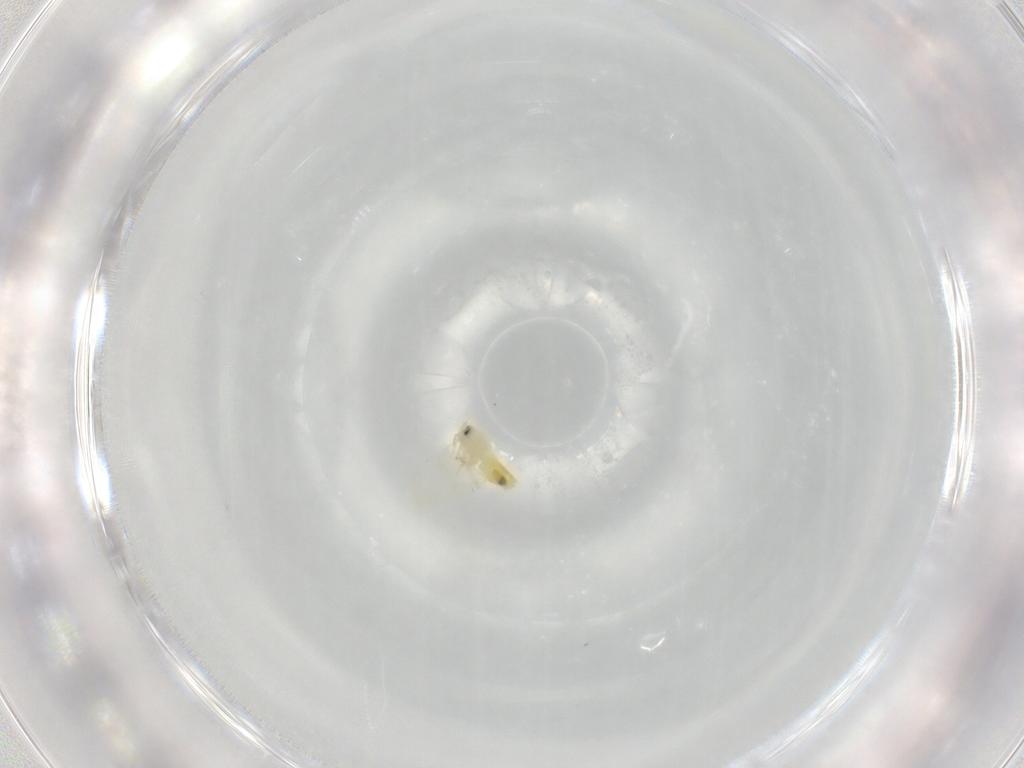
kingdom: Animalia
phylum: Arthropoda
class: Insecta
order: Hemiptera
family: Aleyrodidae
